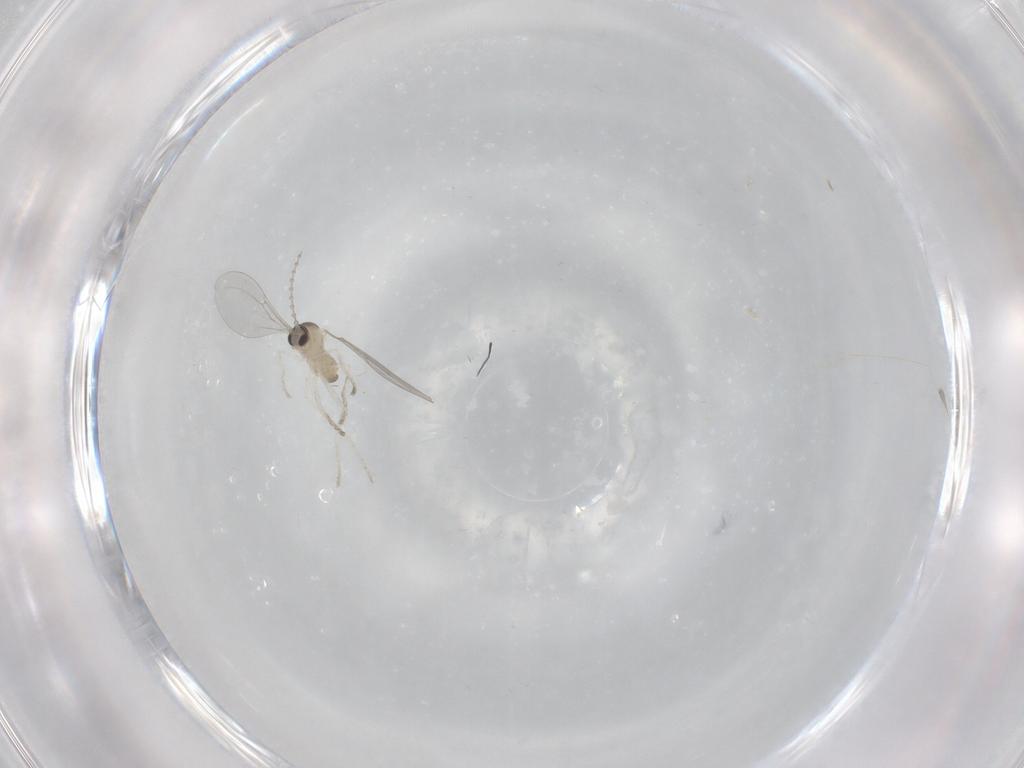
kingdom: Animalia
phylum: Arthropoda
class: Insecta
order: Diptera
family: Cecidomyiidae
